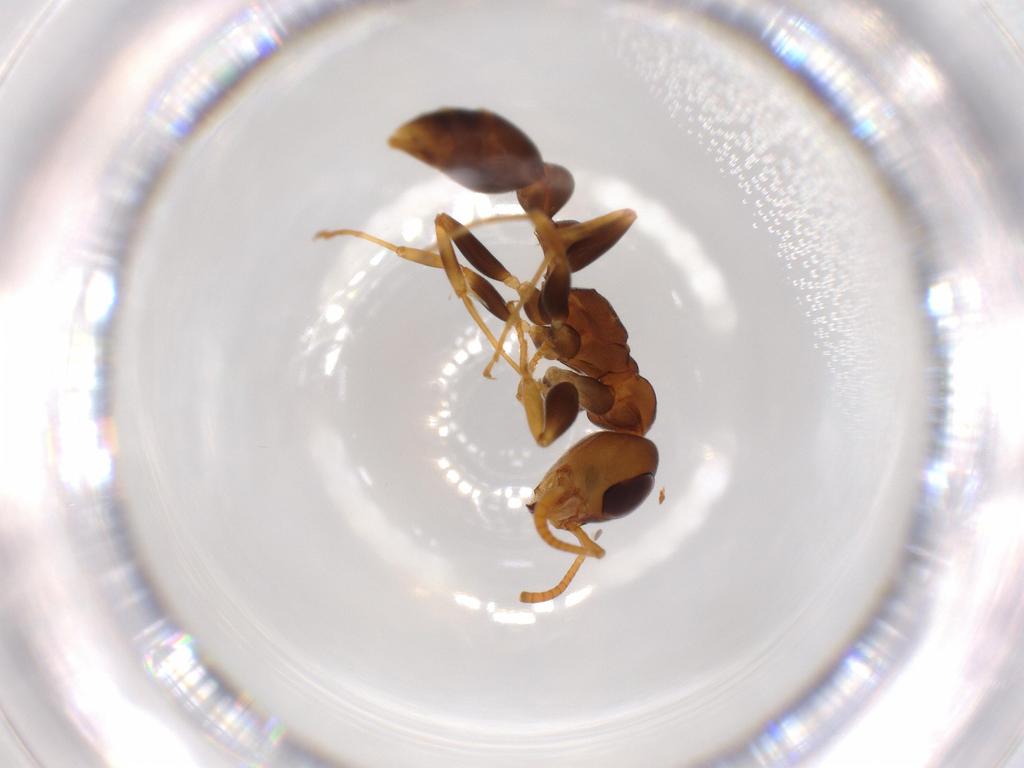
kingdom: Animalia
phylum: Arthropoda
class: Insecta
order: Hymenoptera
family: Formicidae
